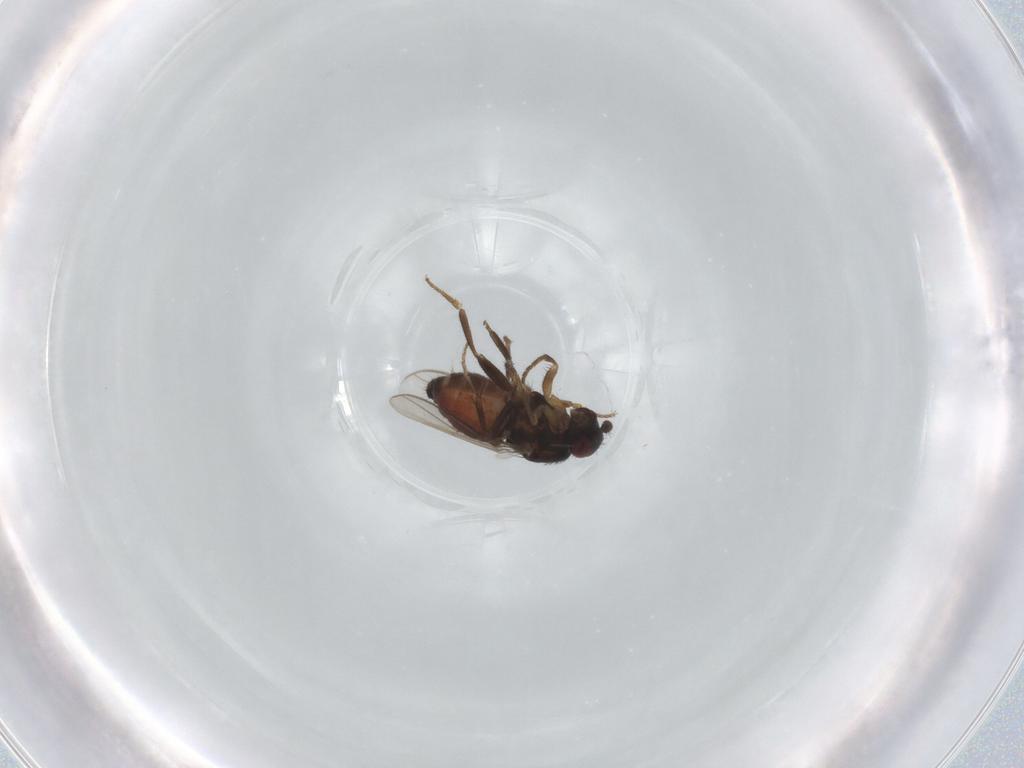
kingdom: Animalia
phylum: Arthropoda
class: Insecta
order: Diptera
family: Sphaeroceridae
